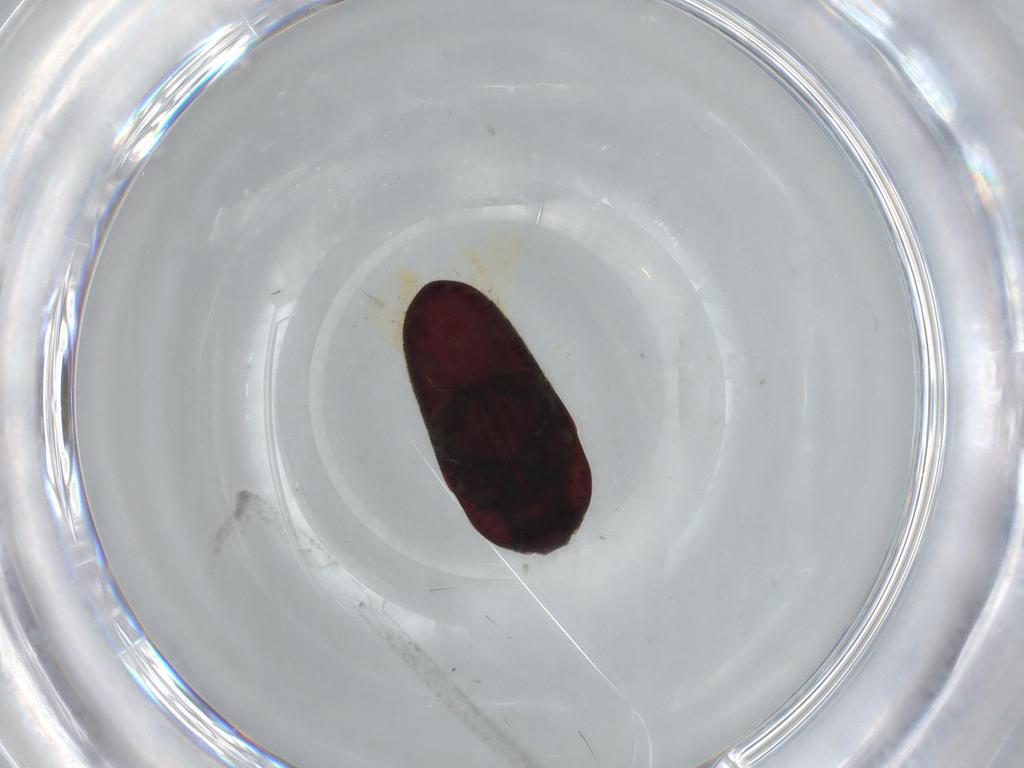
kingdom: Animalia
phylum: Arthropoda
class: Insecta
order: Coleoptera
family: Throscidae
